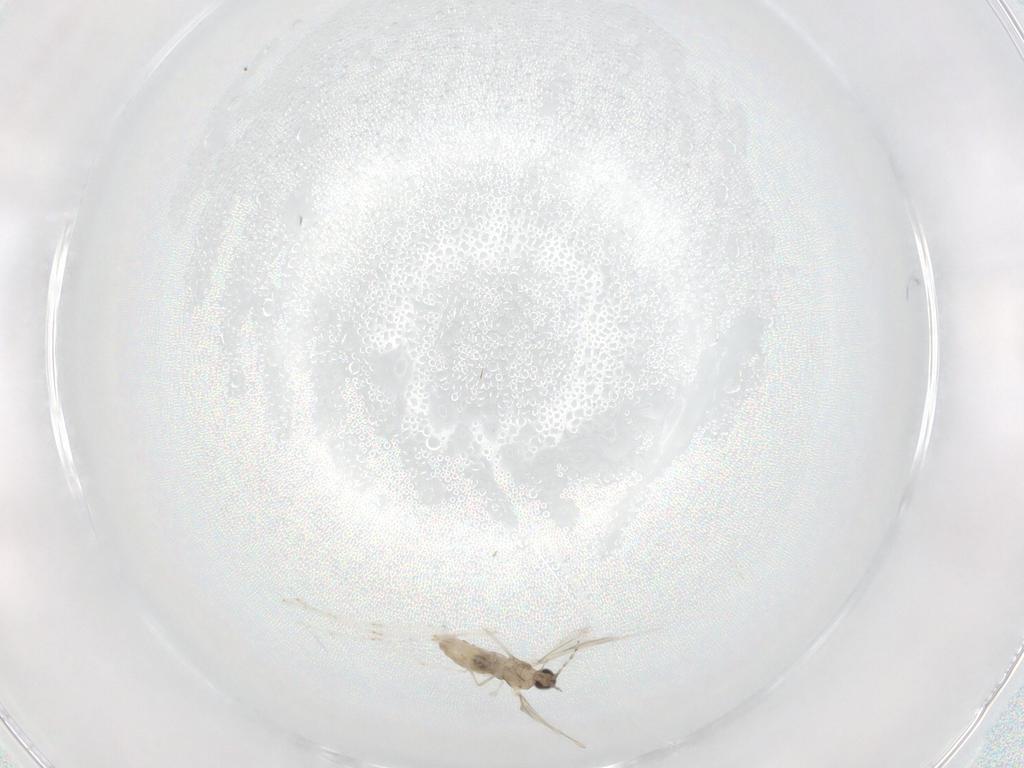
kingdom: Animalia
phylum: Arthropoda
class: Insecta
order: Diptera
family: Cecidomyiidae
